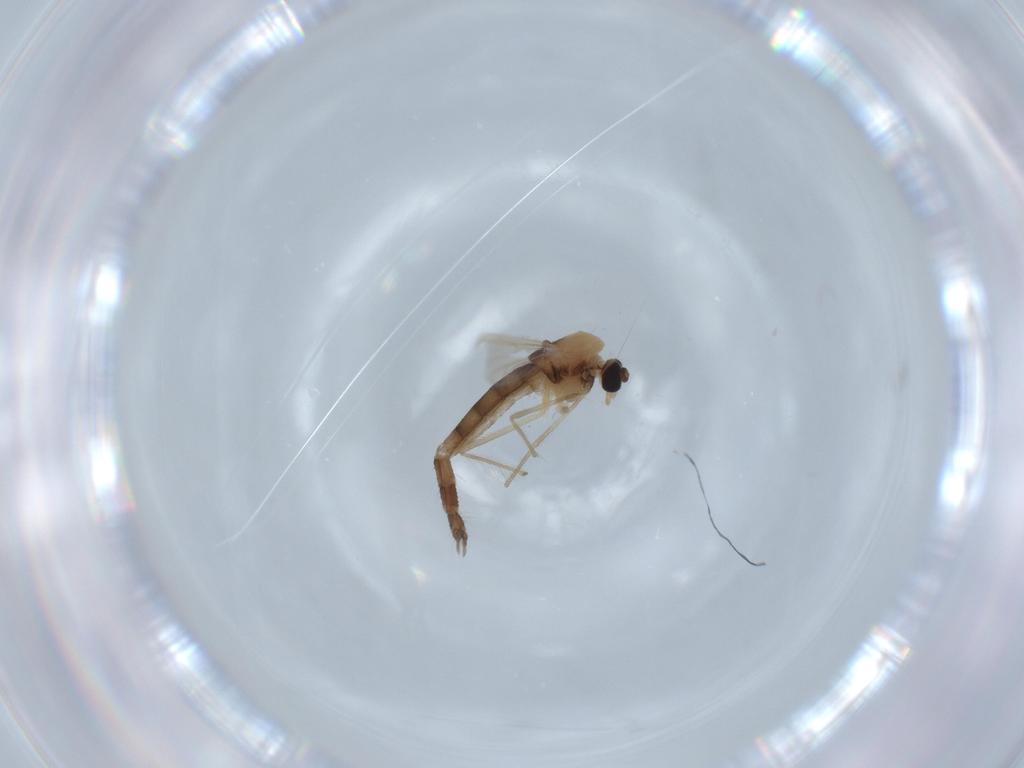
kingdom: Animalia
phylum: Arthropoda
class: Insecta
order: Diptera
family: Chironomidae
